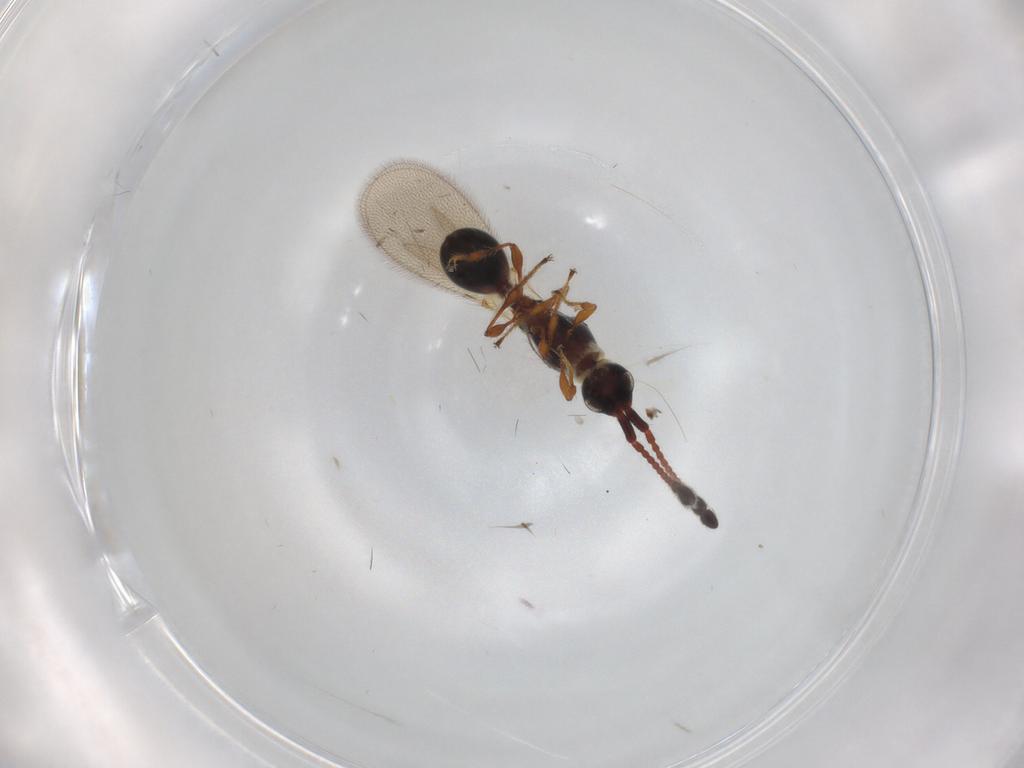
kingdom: Animalia
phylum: Arthropoda
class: Insecta
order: Hymenoptera
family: Diapriidae
